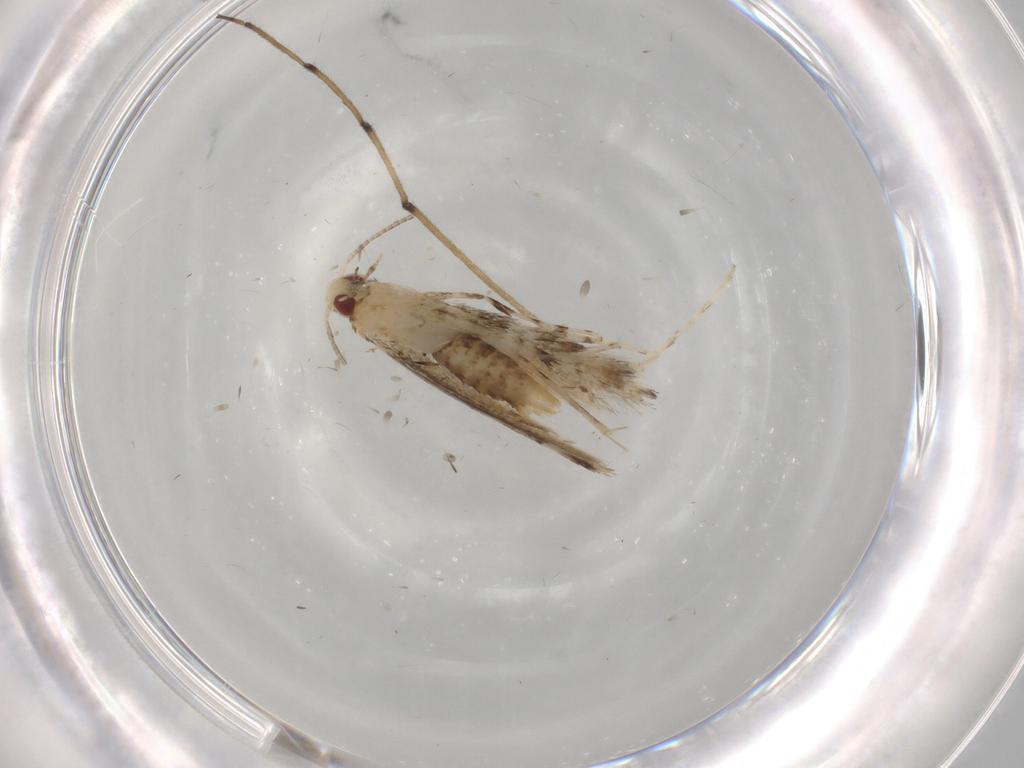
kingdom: Animalia
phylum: Arthropoda
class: Insecta
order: Lepidoptera
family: Gracillariidae
